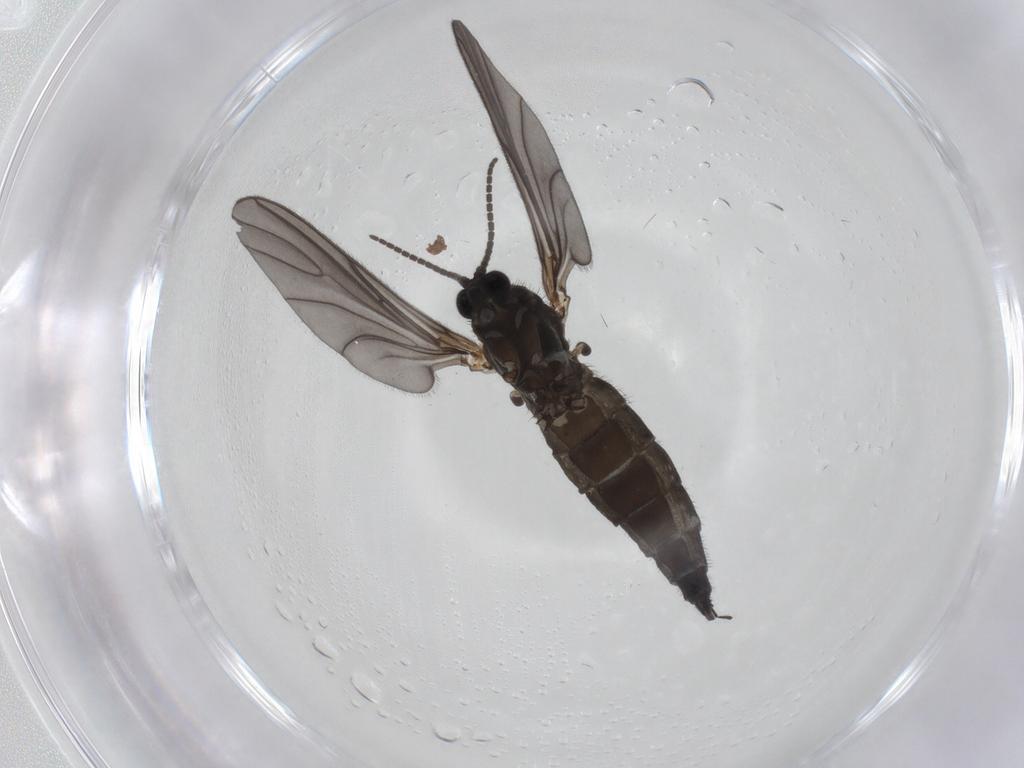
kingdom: Animalia
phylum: Arthropoda
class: Insecta
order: Diptera
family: Sciaridae
